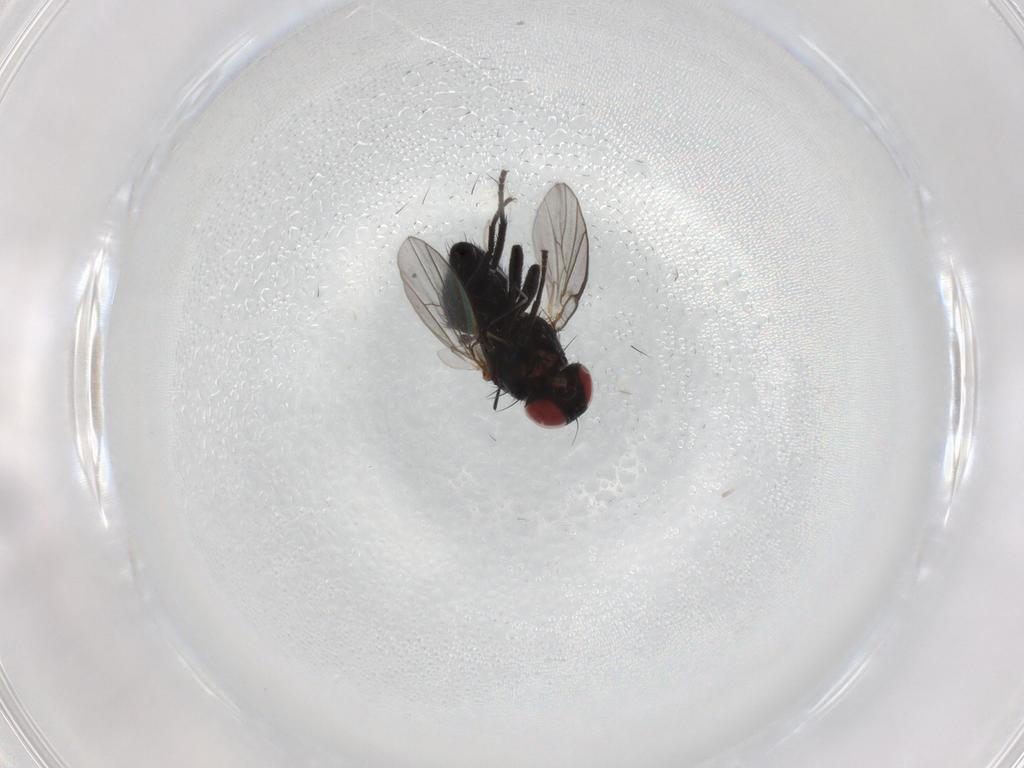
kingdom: Animalia
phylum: Arthropoda
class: Insecta
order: Diptera
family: Agromyzidae
